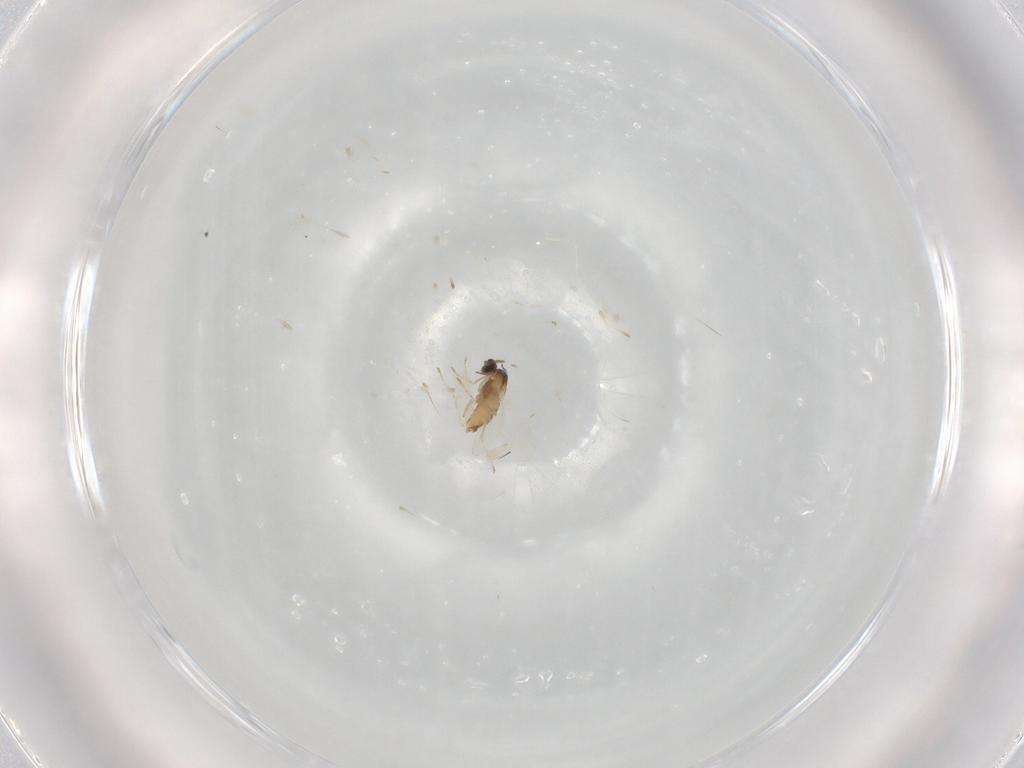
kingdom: Animalia
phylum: Arthropoda
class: Insecta
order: Diptera
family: Cecidomyiidae
